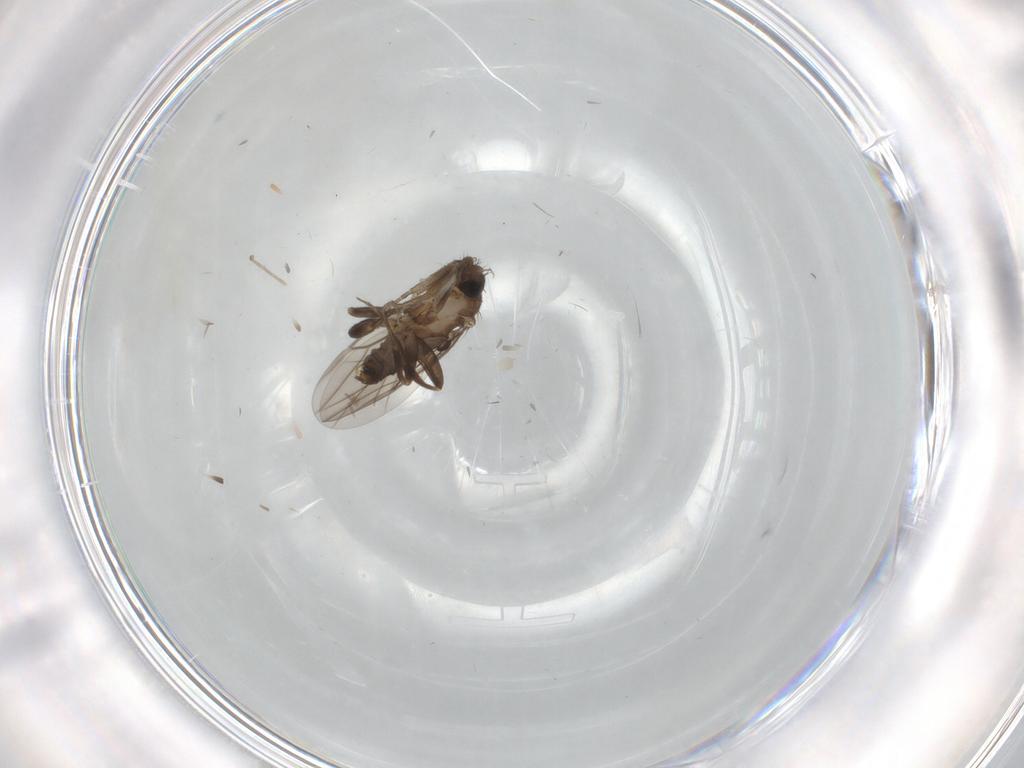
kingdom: Animalia
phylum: Arthropoda
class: Insecta
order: Diptera
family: Phoridae
